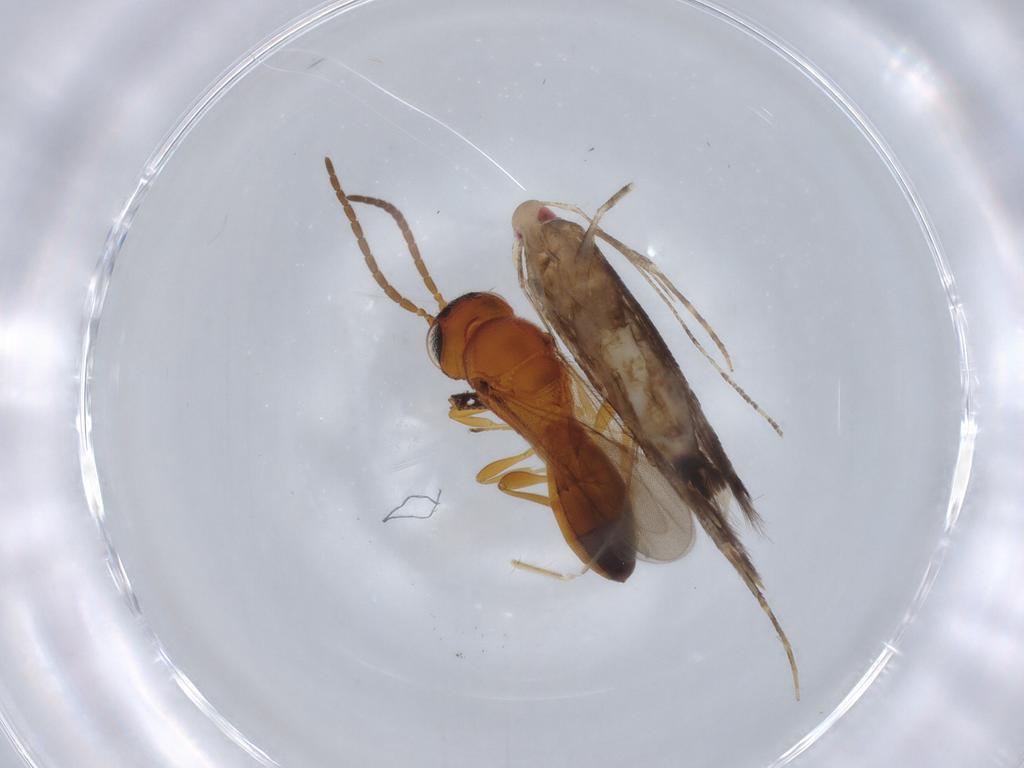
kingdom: Animalia
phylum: Arthropoda
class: Insecta
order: Lepidoptera
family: Cosmopterigidae
